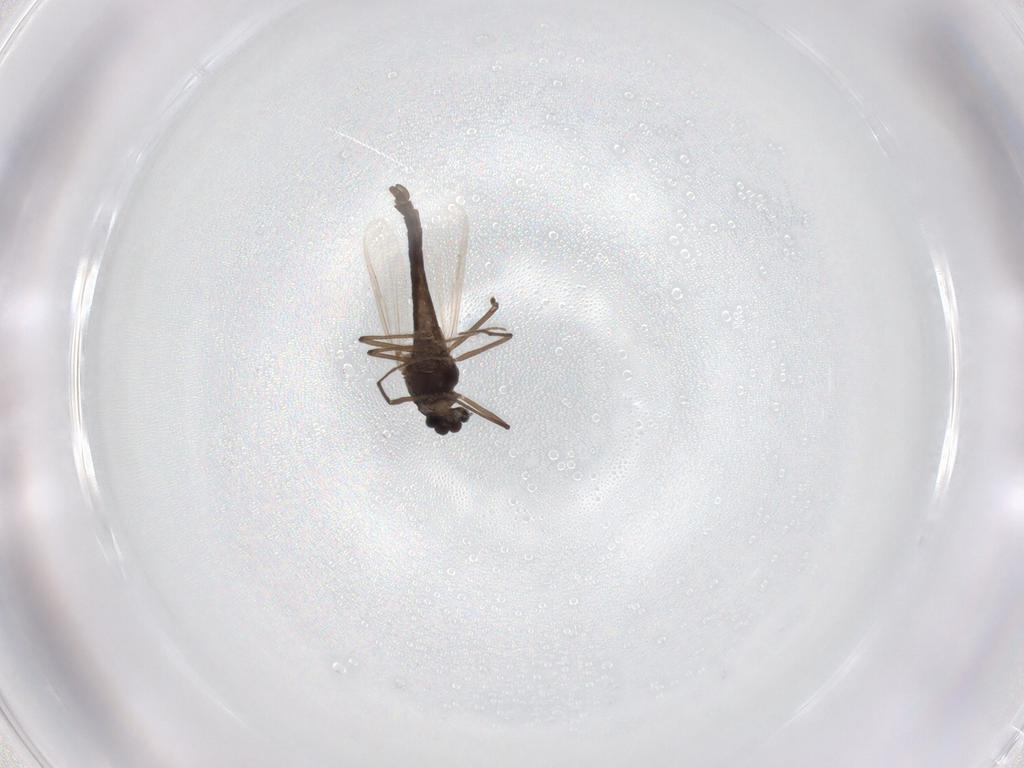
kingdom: Animalia
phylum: Arthropoda
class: Insecta
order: Diptera
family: Chironomidae
